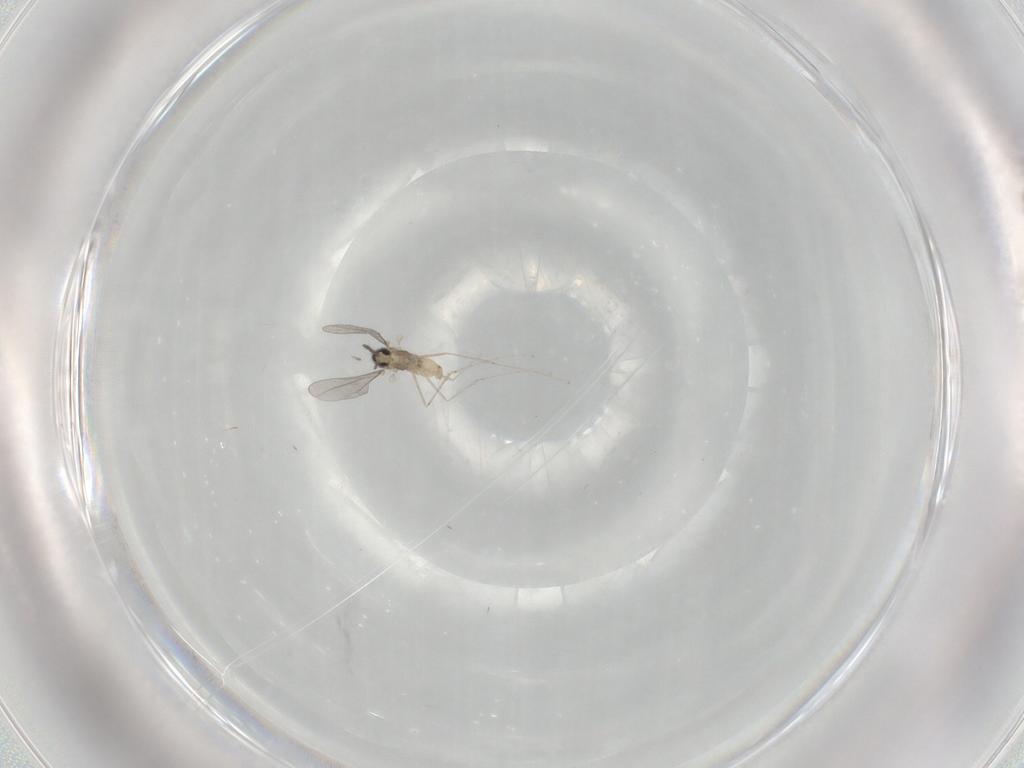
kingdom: Animalia
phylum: Arthropoda
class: Insecta
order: Diptera
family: Cecidomyiidae
